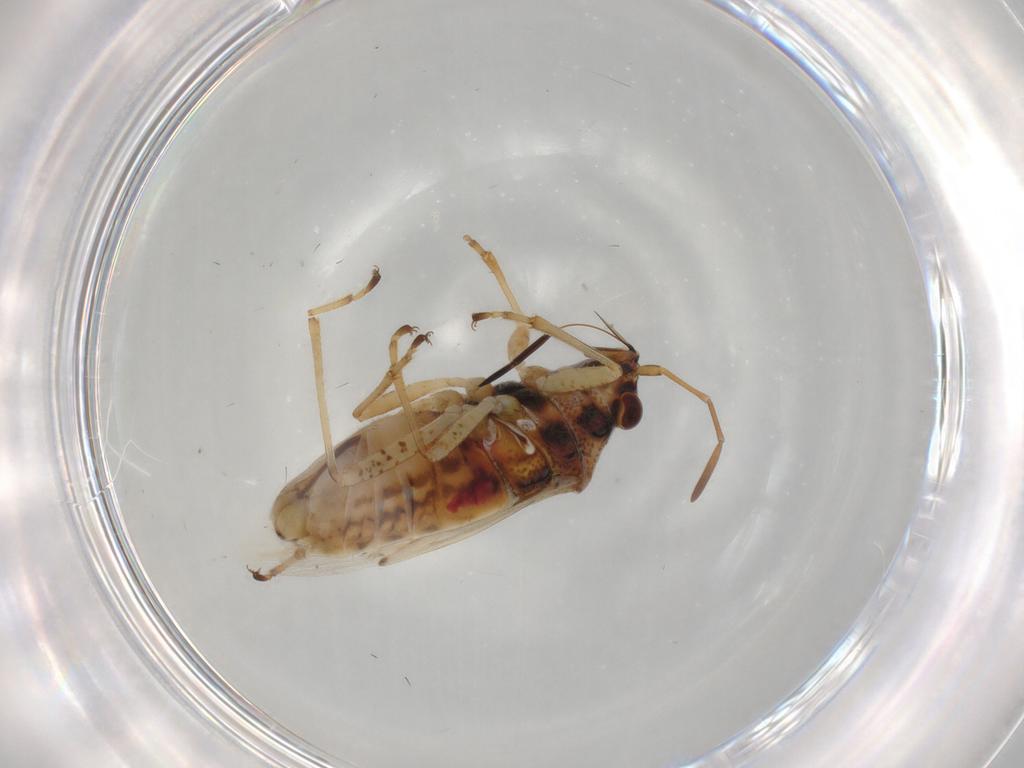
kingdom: Animalia
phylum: Arthropoda
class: Insecta
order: Hemiptera
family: Lygaeidae
